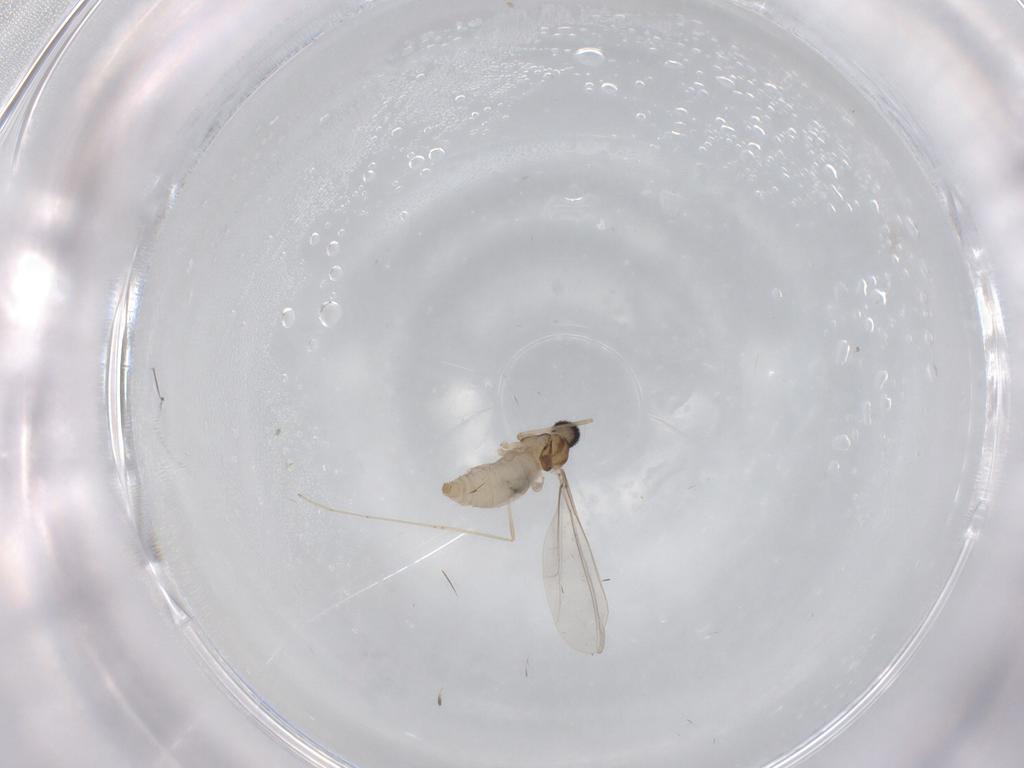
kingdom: Animalia
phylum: Arthropoda
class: Insecta
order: Diptera
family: Cecidomyiidae
